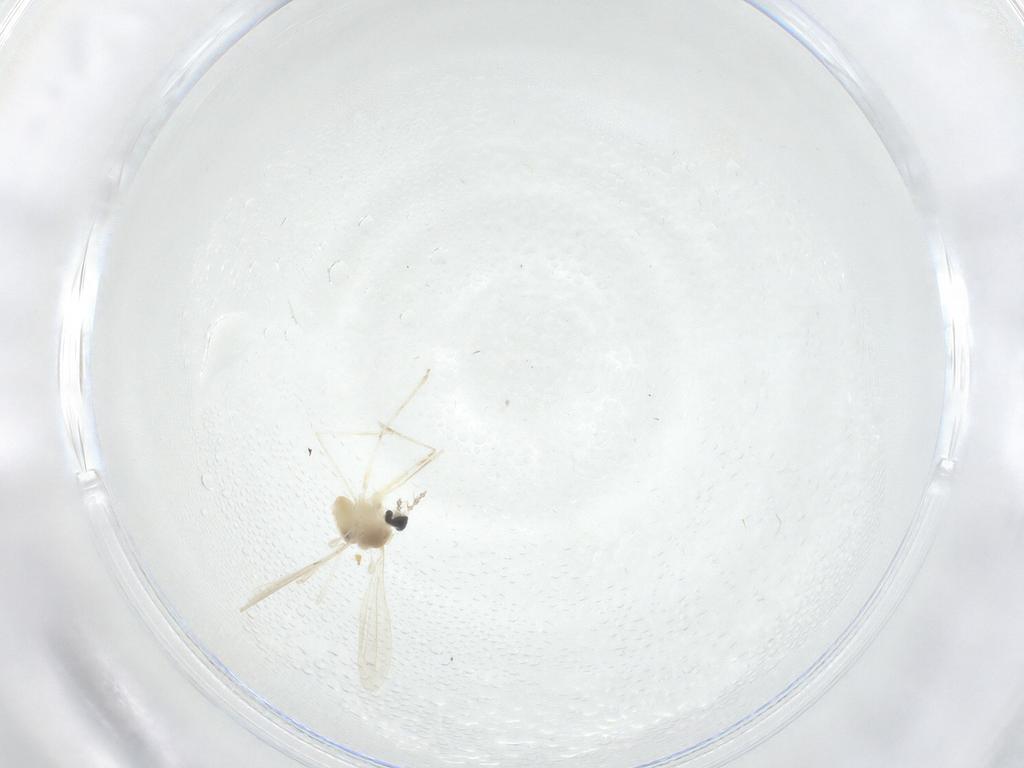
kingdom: Animalia
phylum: Arthropoda
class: Insecta
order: Diptera
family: Cecidomyiidae
